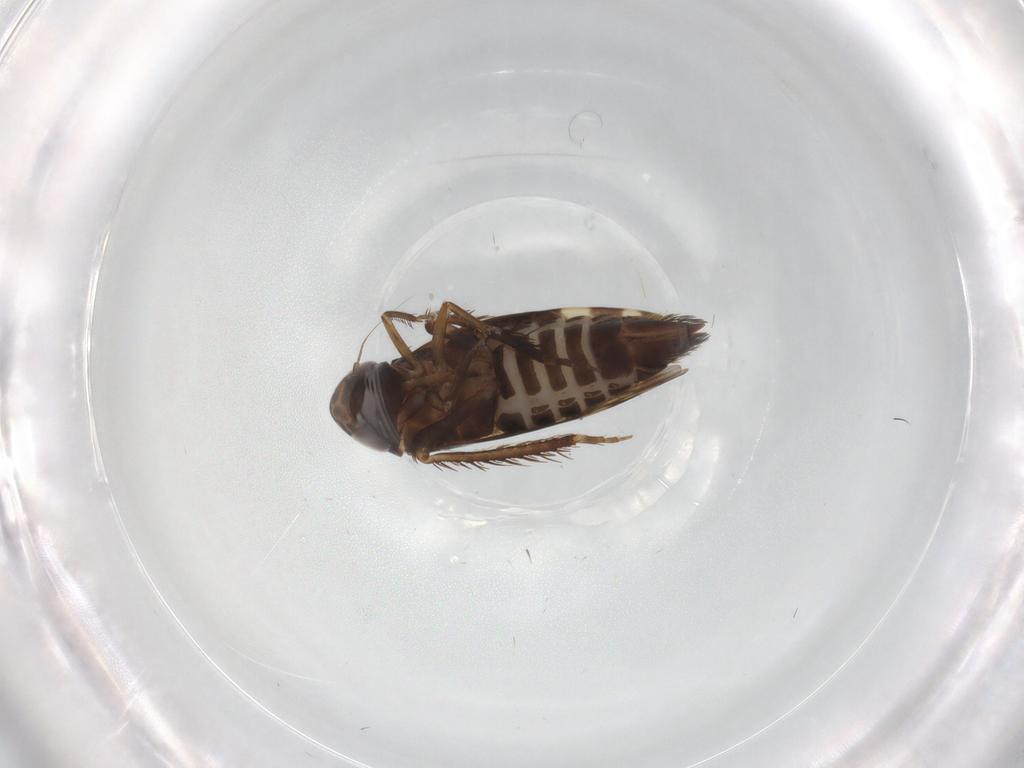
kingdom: Animalia
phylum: Arthropoda
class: Insecta
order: Hemiptera
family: Cicadellidae
